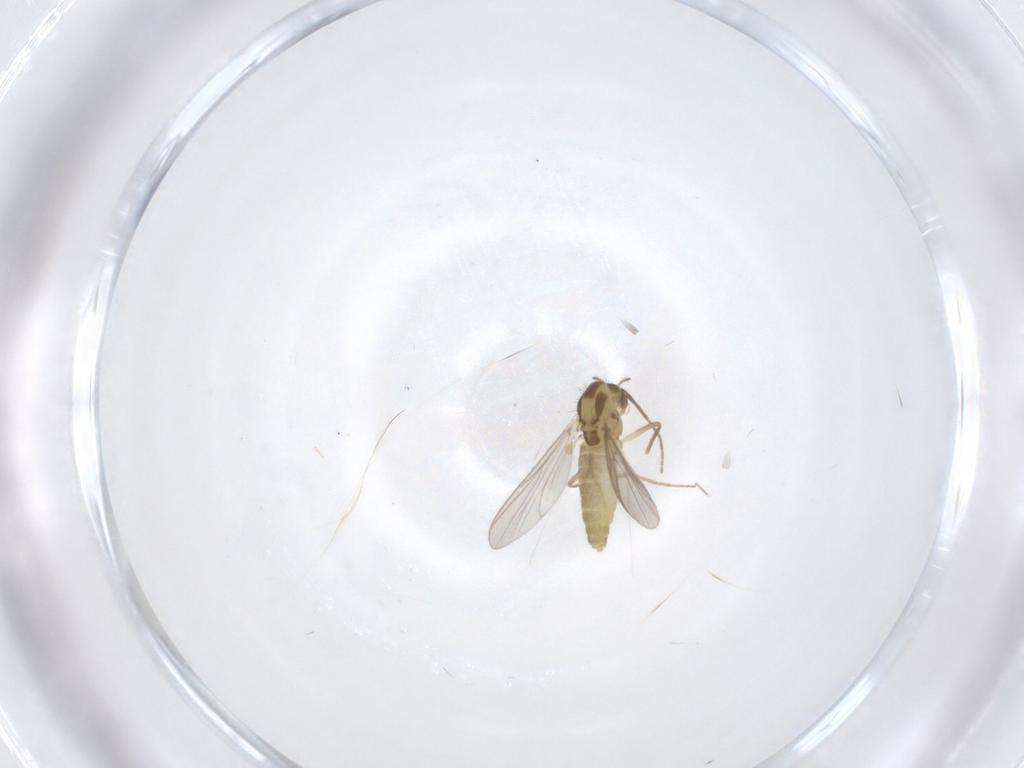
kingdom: Animalia
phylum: Arthropoda
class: Insecta
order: Diptera
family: Chironomidae
